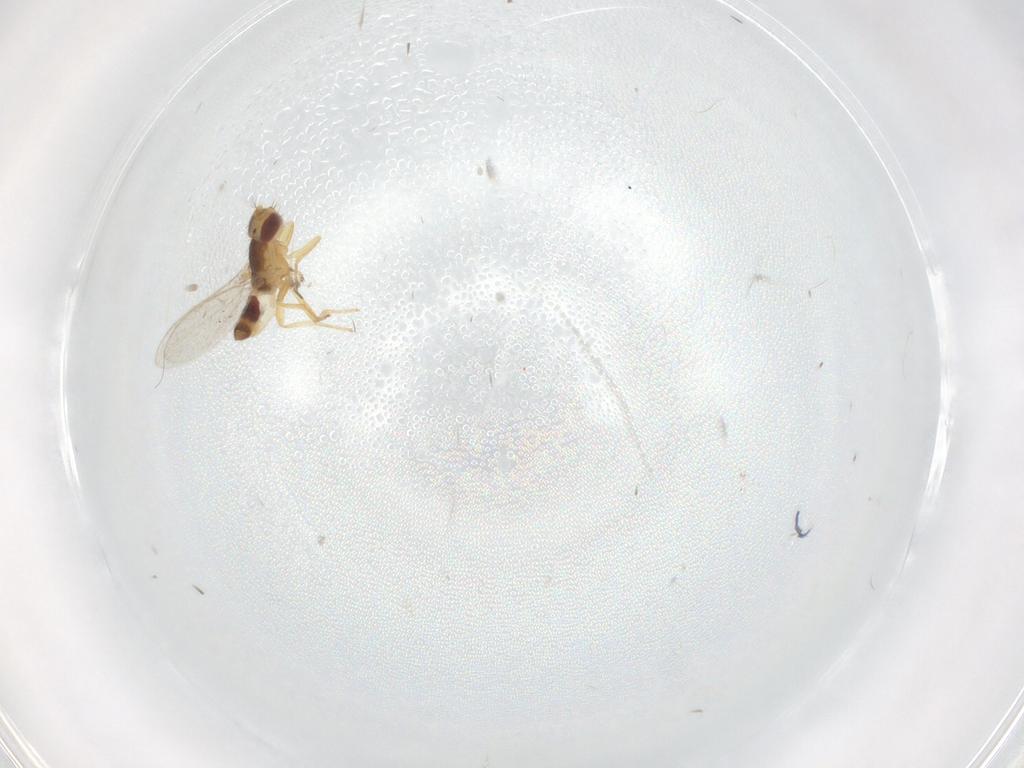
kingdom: Animalia
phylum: Arthropoda
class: Insecta
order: Diptera
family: Periscelididae
